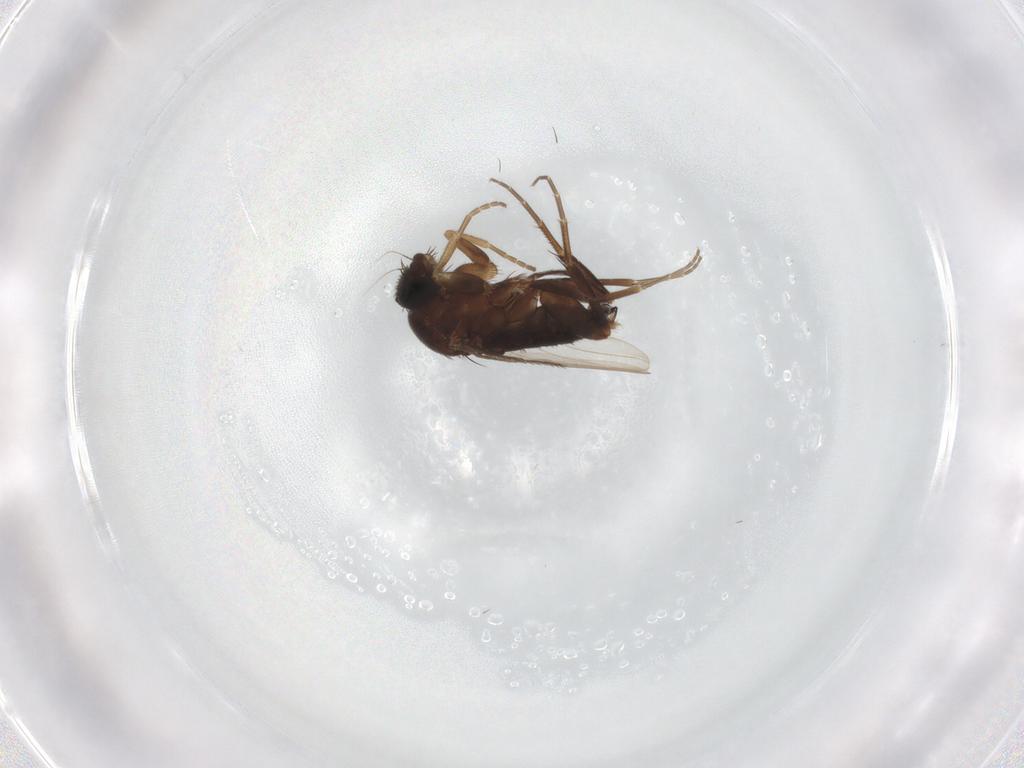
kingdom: Animalia
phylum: Arthropoda
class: Insecta
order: Diptera
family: Phoridae
